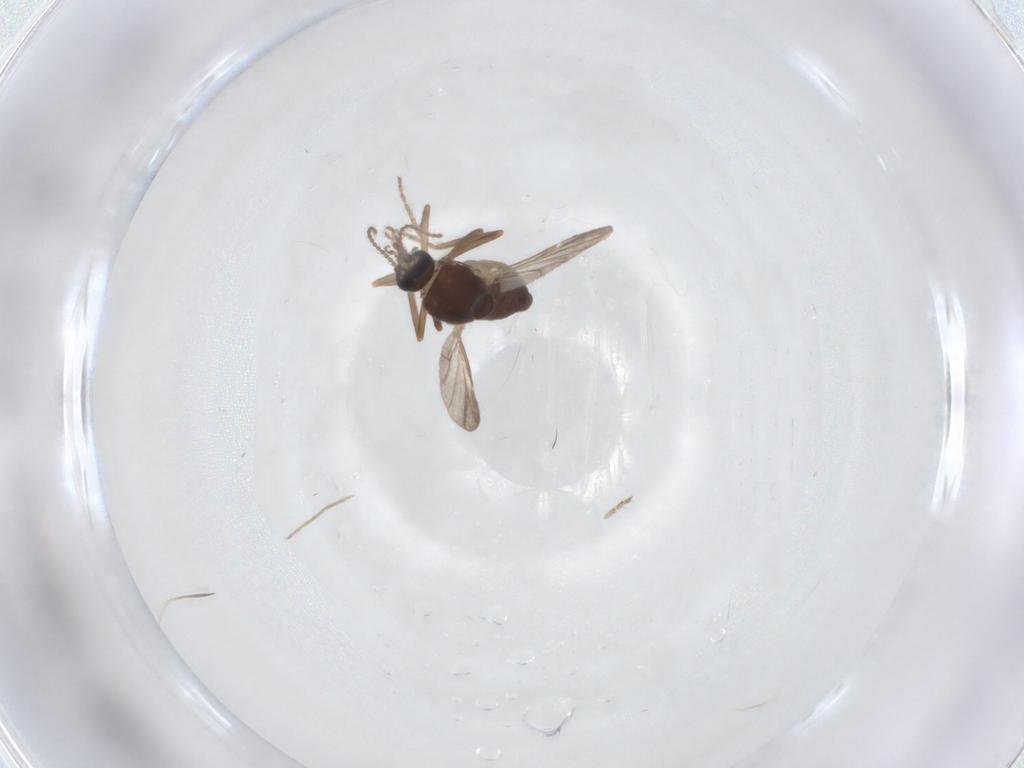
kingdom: Animalia
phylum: Arthropoda
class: Insecta
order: Diptera
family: Ceratopogonidae
